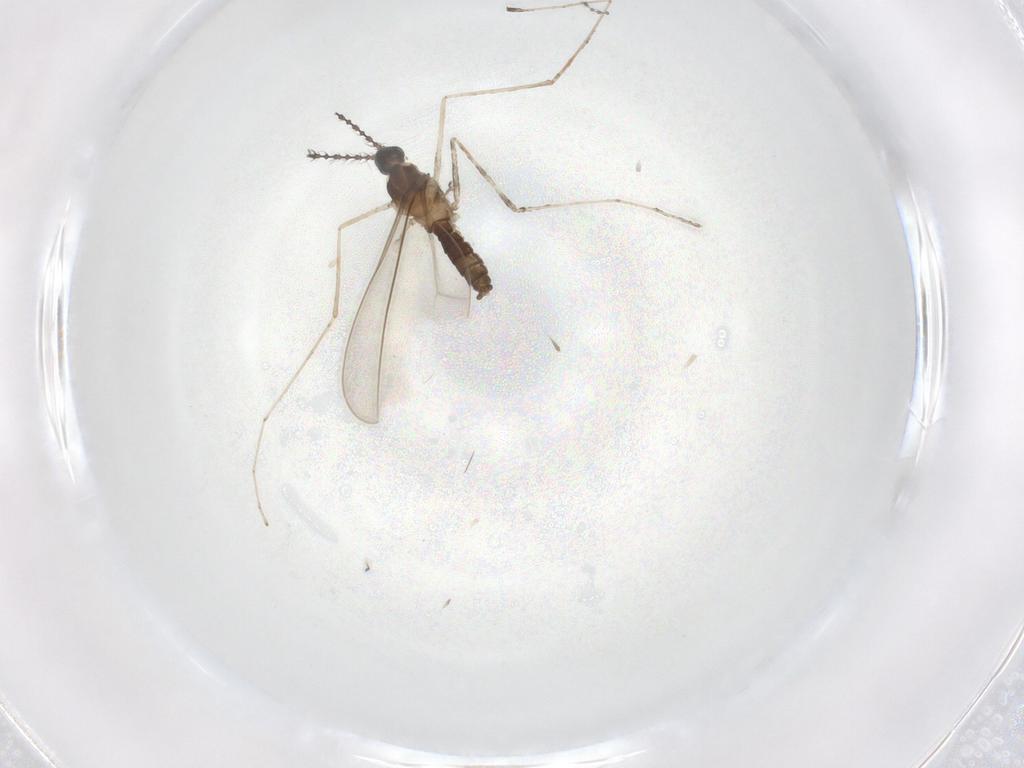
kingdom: Animalia
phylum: Arthropoda
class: Insecta
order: Diptera
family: Cecidomyiidae
